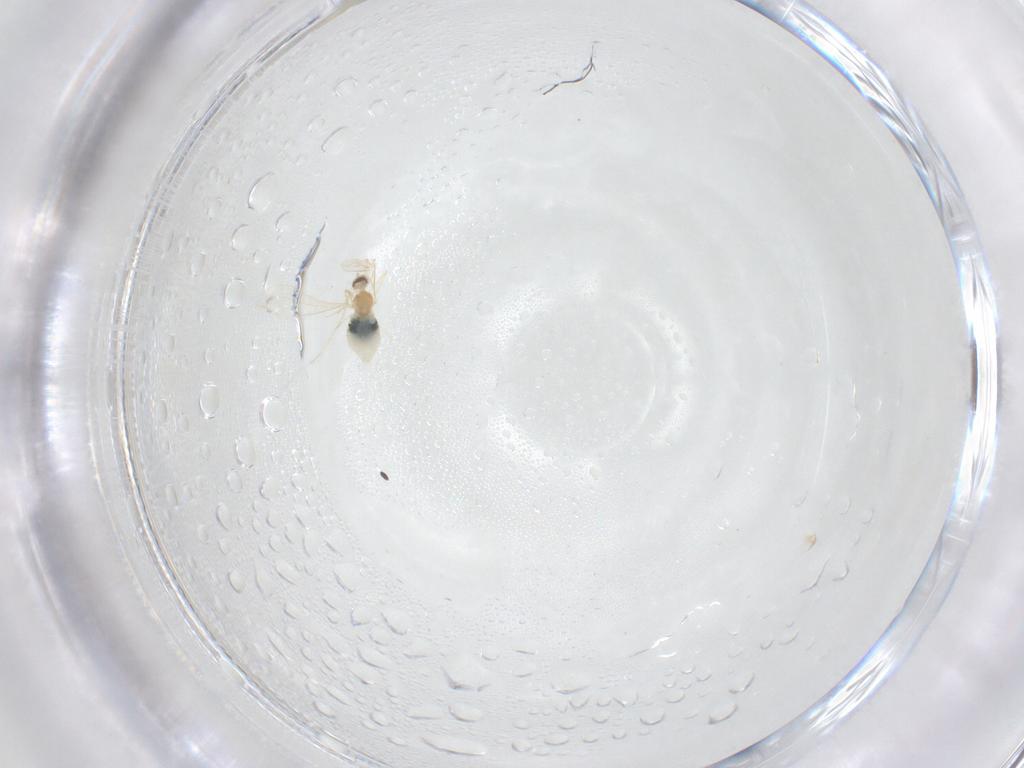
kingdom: Animalia
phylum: Arthropoda
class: Insecta
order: Diptera
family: Cecidomyiidae
